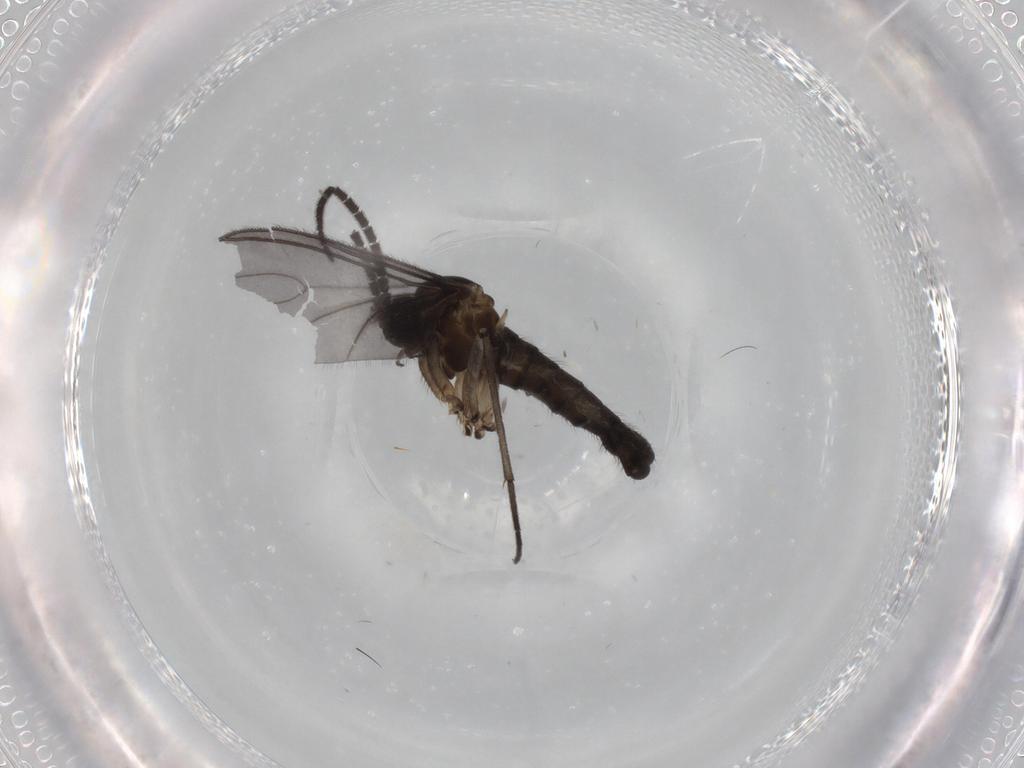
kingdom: Animalia
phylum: Arthropoda
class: Insecta
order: Diptera
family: Sciaridae
